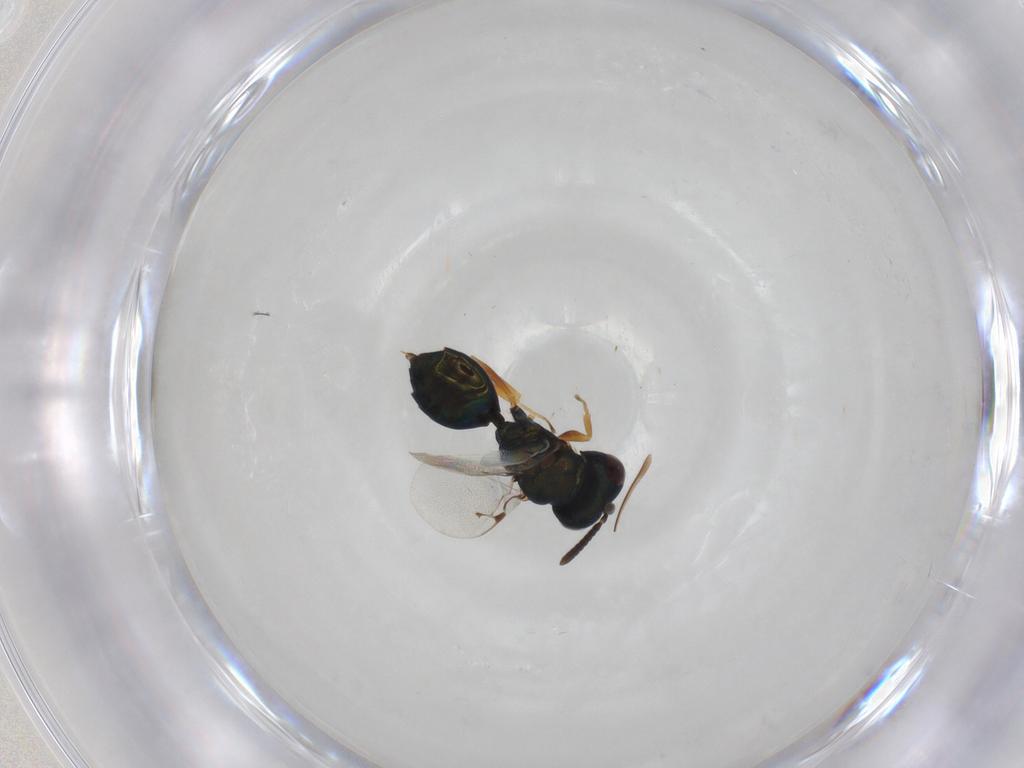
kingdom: Animalia
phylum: Arthropoda
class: Insecta
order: Hymenoptera
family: Pteromalidae
